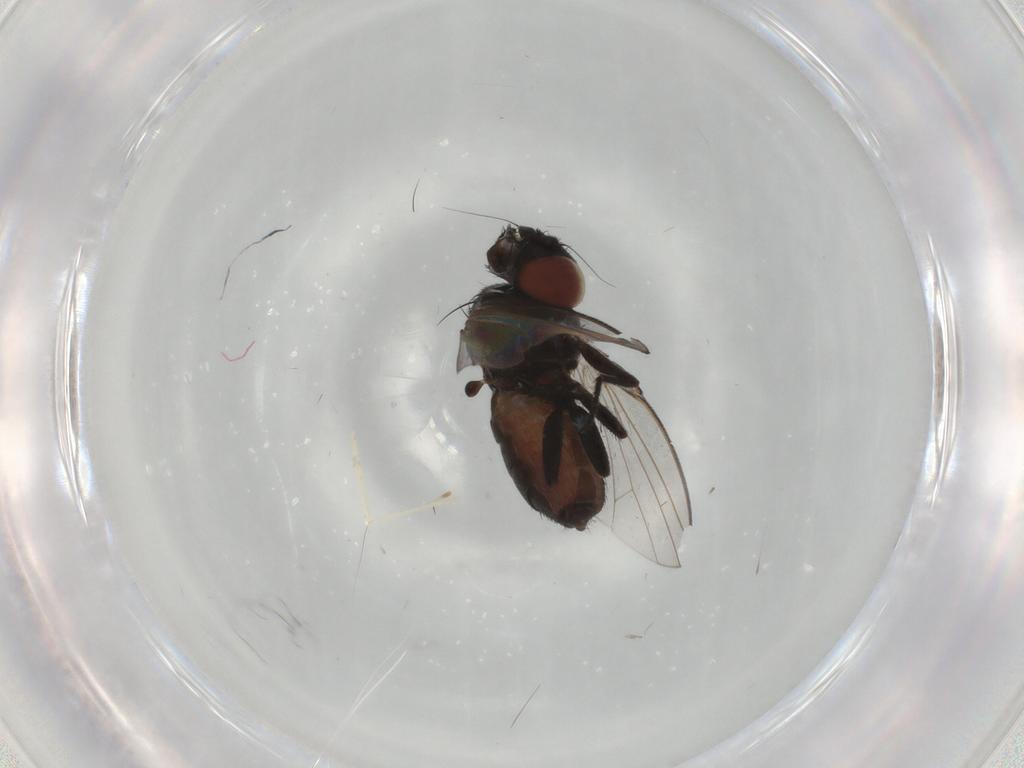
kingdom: Animalia
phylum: Arthropoda
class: Insecta
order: Diptera
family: Milichiidae
